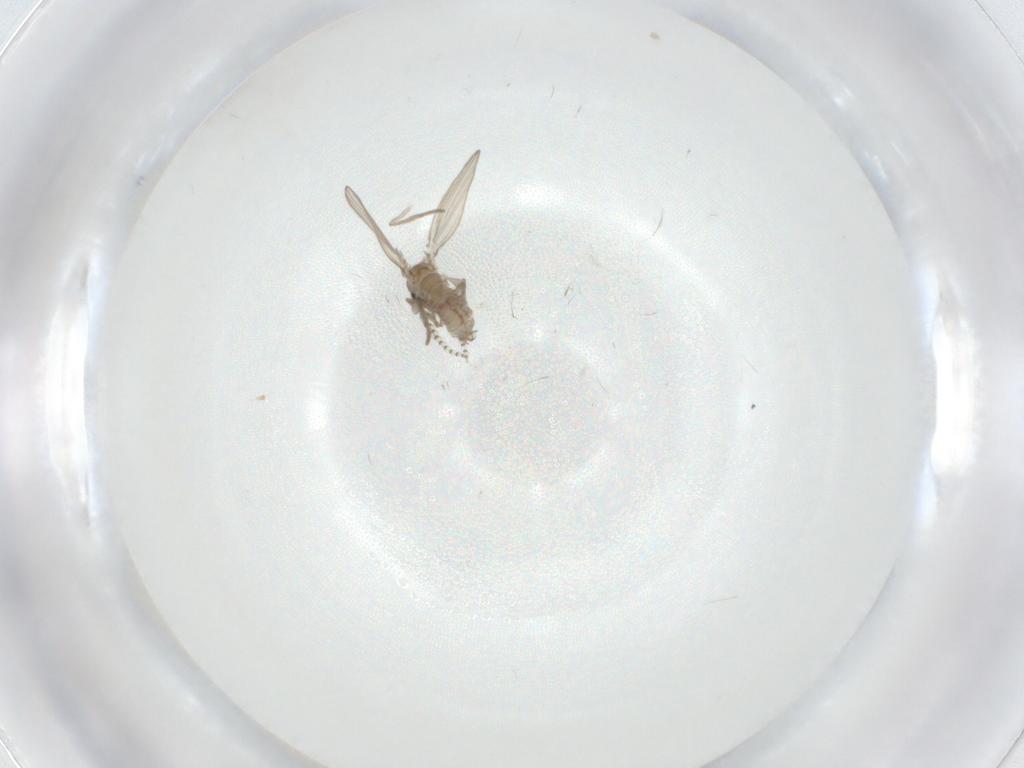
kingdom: Animalia
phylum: Arthropoda
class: Insecta
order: Diptera
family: Psychodidae
